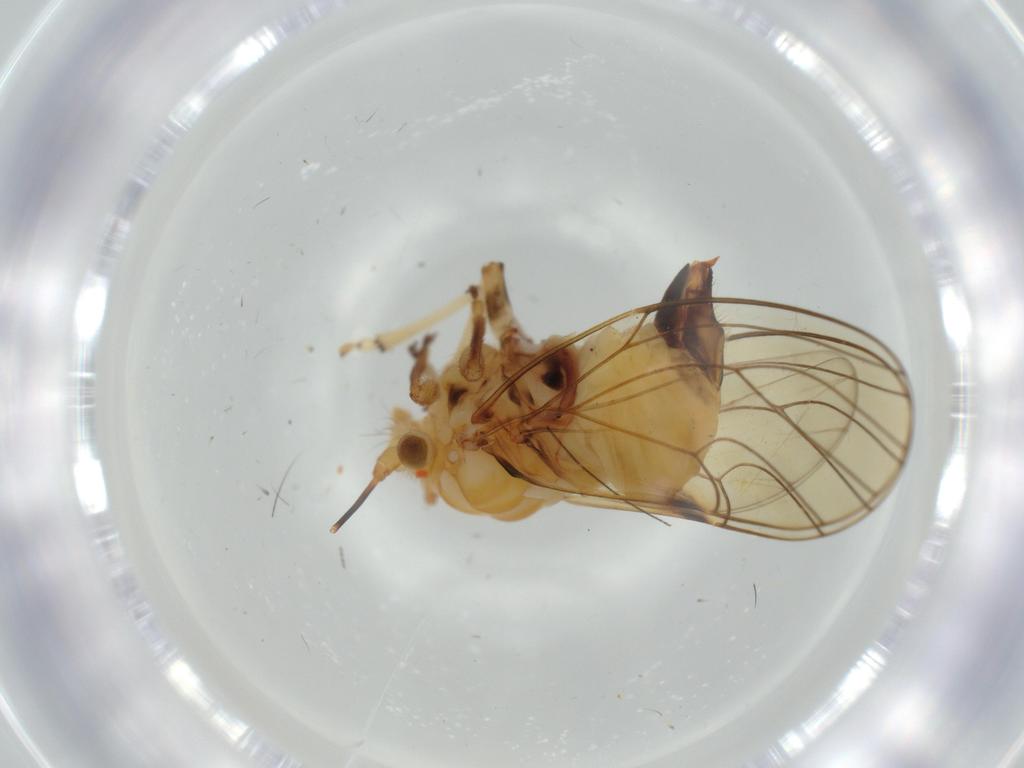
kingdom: Animalia
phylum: Arthropoda
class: Insecta
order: Hemiptera
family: Psyllidae
